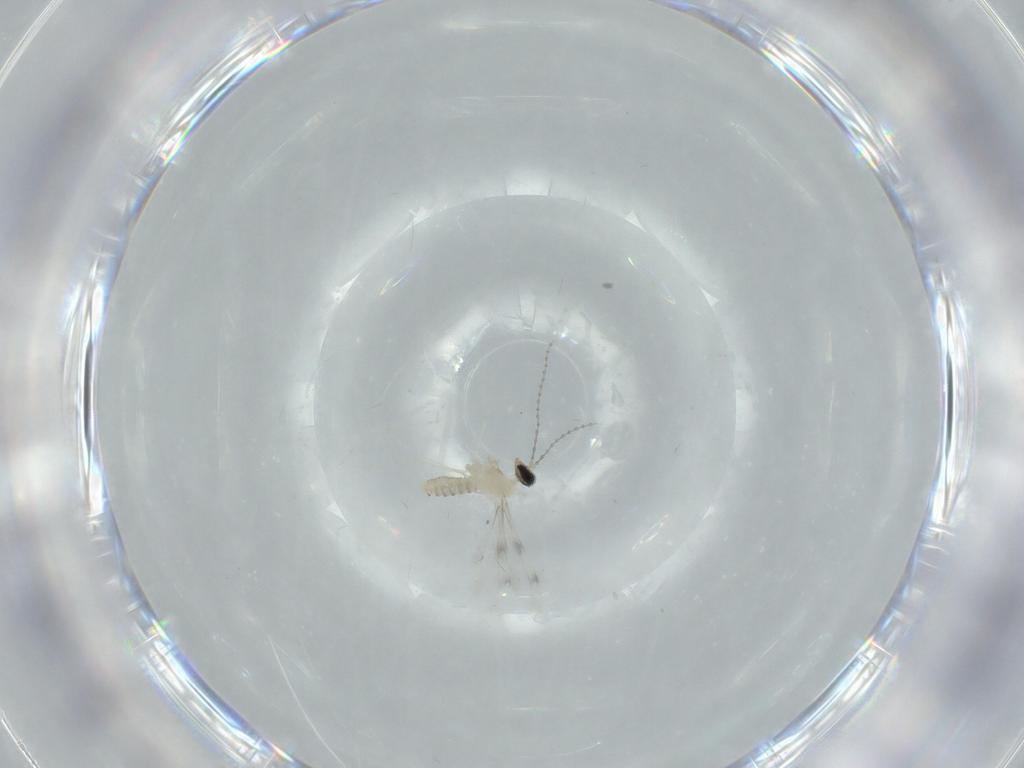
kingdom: Animalia
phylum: Arthropoda
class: Insecta
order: Diptera
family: Cecidomyiidae
